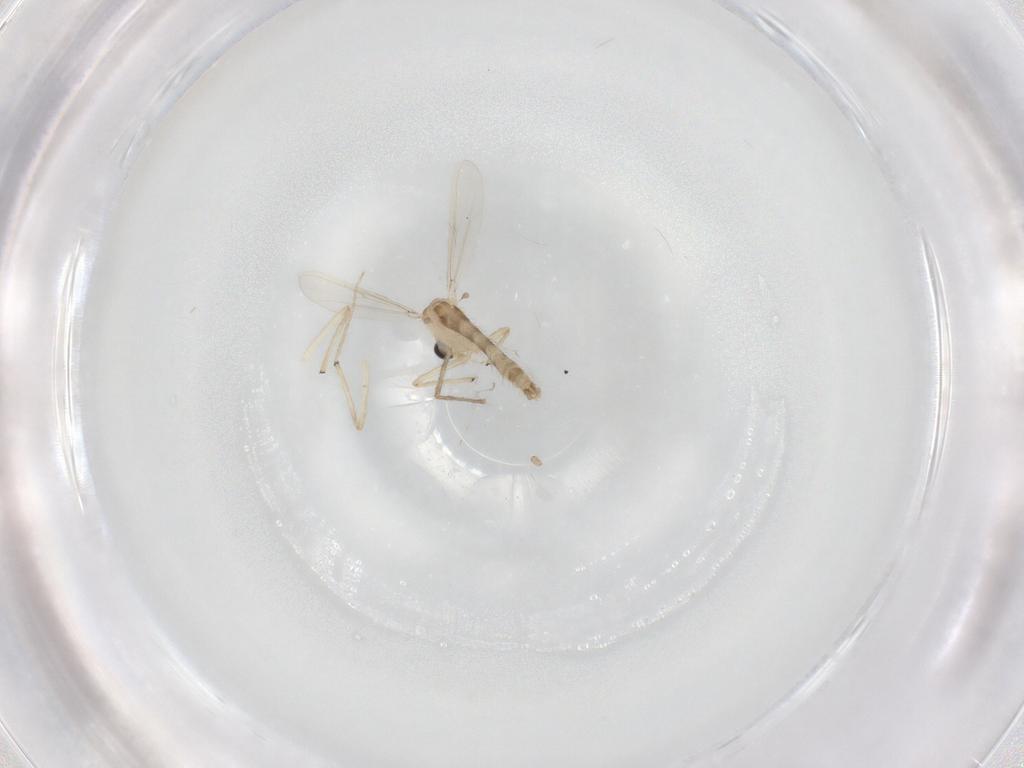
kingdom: Animalia
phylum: Arthropoda
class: Insecta
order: Diptera
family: Chironomidae
